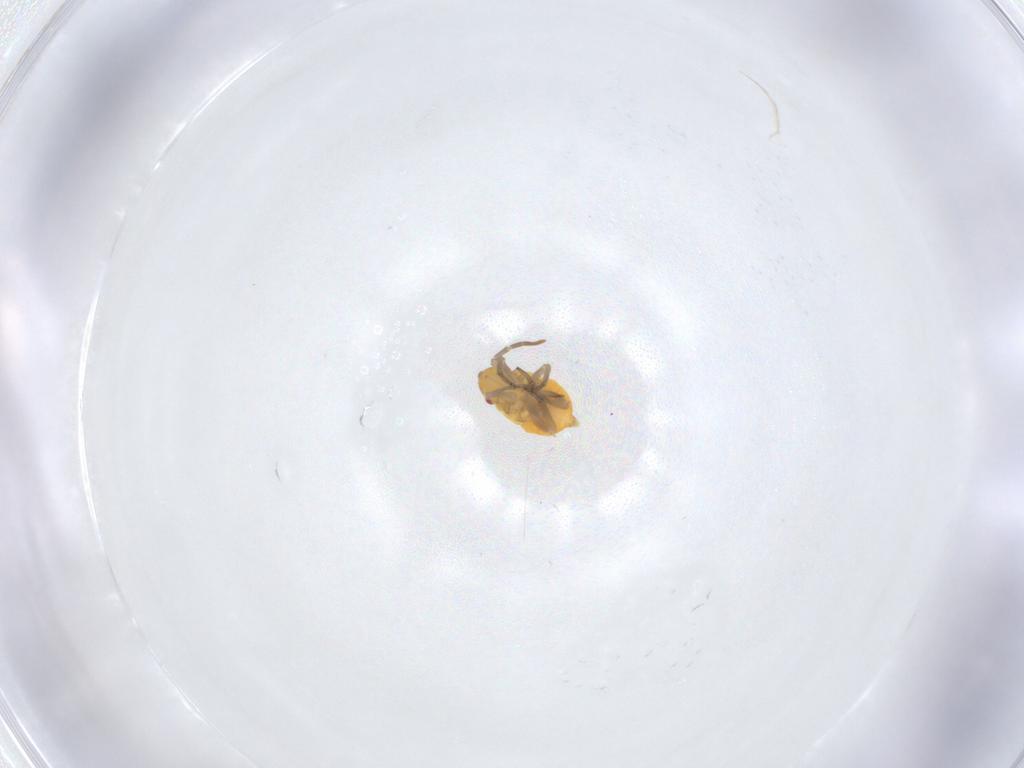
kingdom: Animalia
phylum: Arthropoda
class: Insecta
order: Hemiptera
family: Miridae
